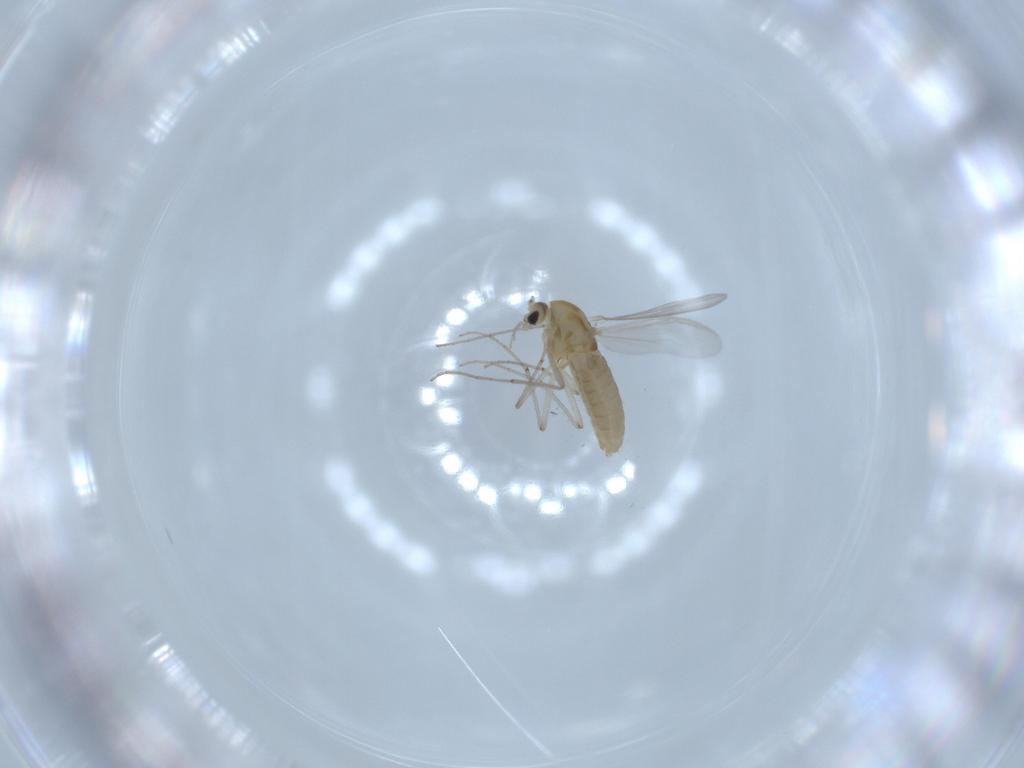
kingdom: Animalia
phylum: Arthropoda
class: Insecta
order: Diptera
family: Chironomidae
